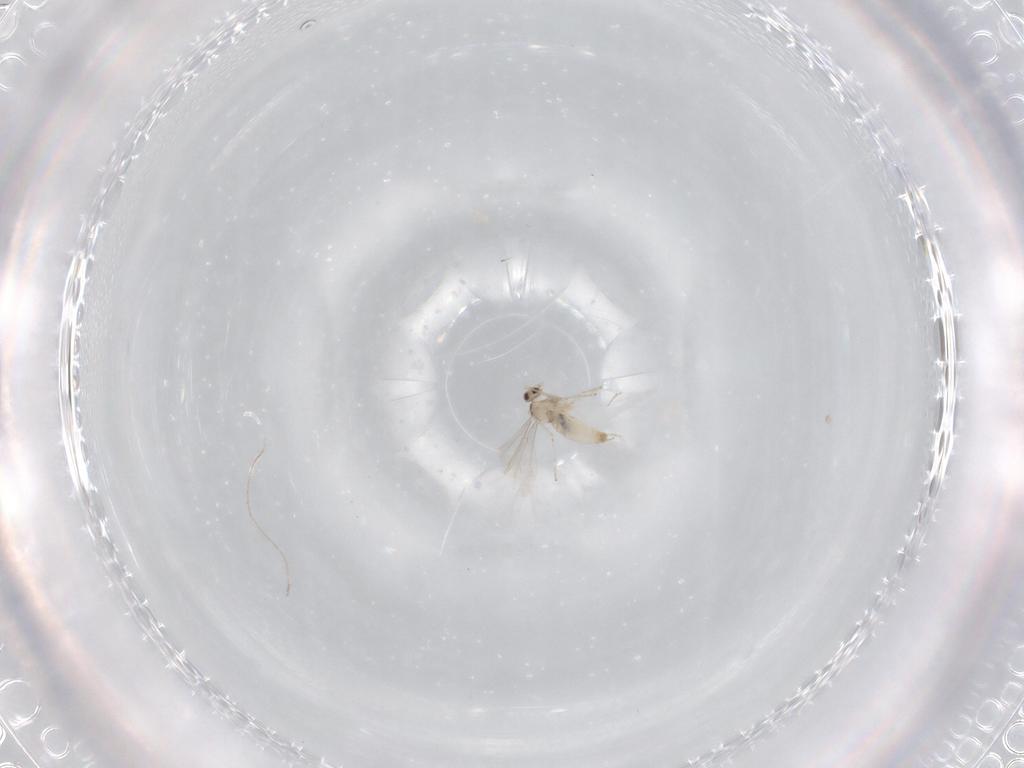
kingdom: Animalia
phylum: Arthropoda
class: Insecta
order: Diptera
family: Cecidomyiidae
